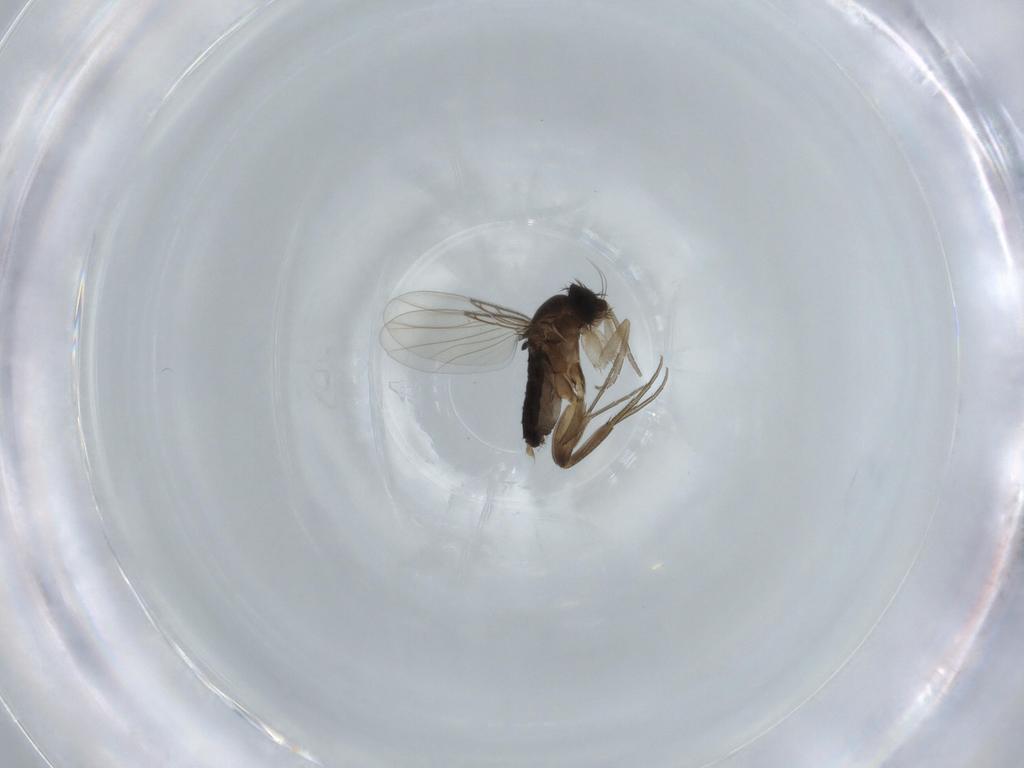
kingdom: Animalia
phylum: Arthropoda
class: Insecta
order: Diptera
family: Phoridae
